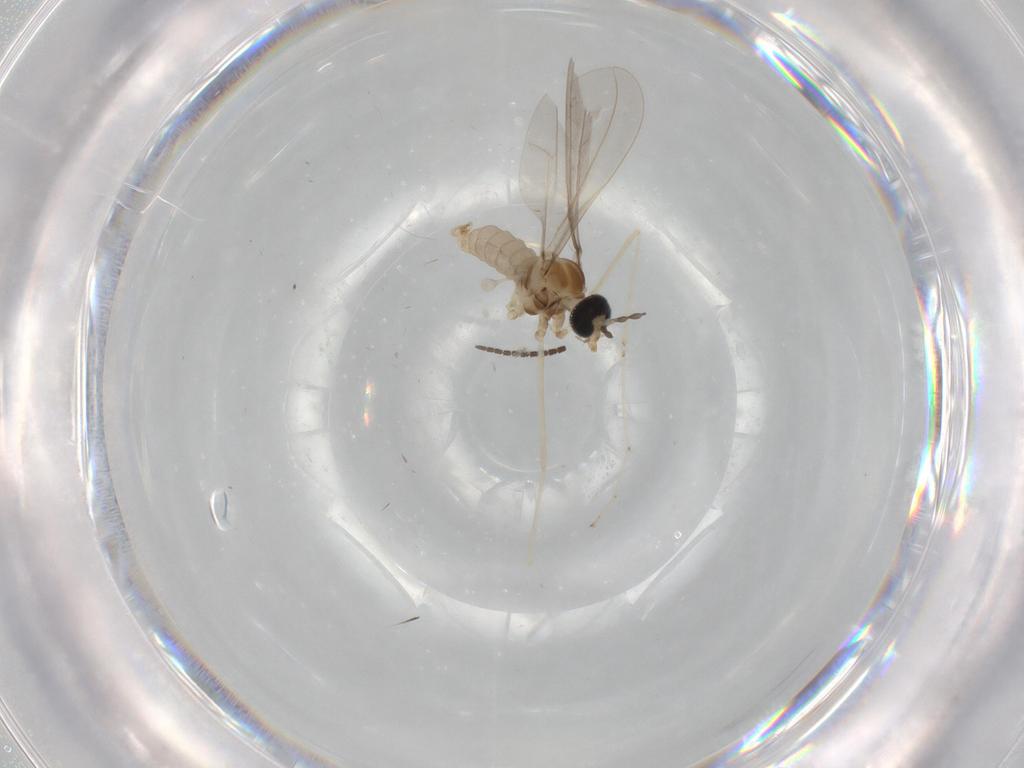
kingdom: Animalia
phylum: Arthropoda
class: Insecta
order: Diptera
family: Cecidomyiidae
